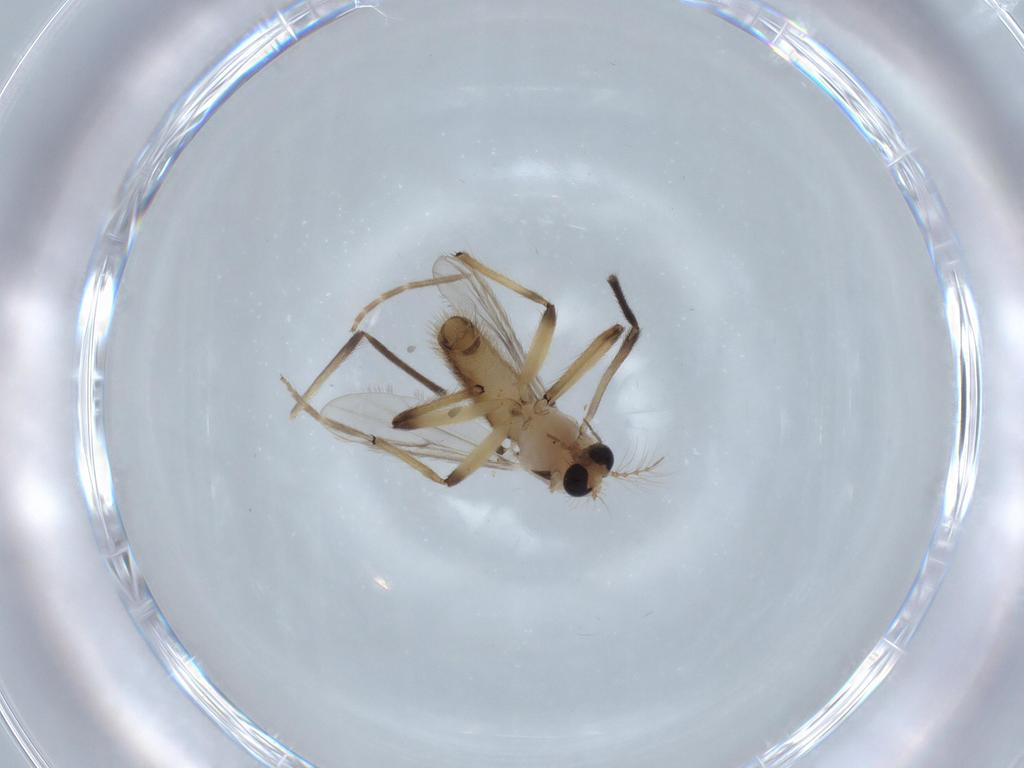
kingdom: Animalia
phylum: Arthropoda
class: Insecta
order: Diptera
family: Chironomidae
